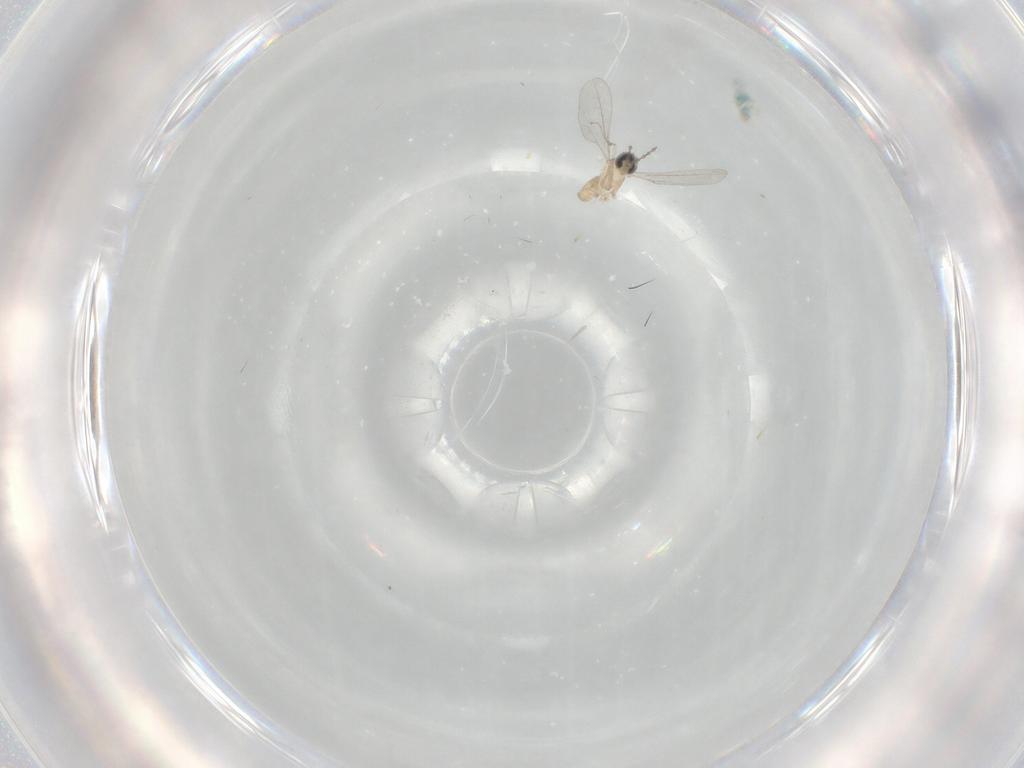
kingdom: Animalia
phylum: Arthropoda
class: Insecta
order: Diptera
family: Cecidomyiidae
